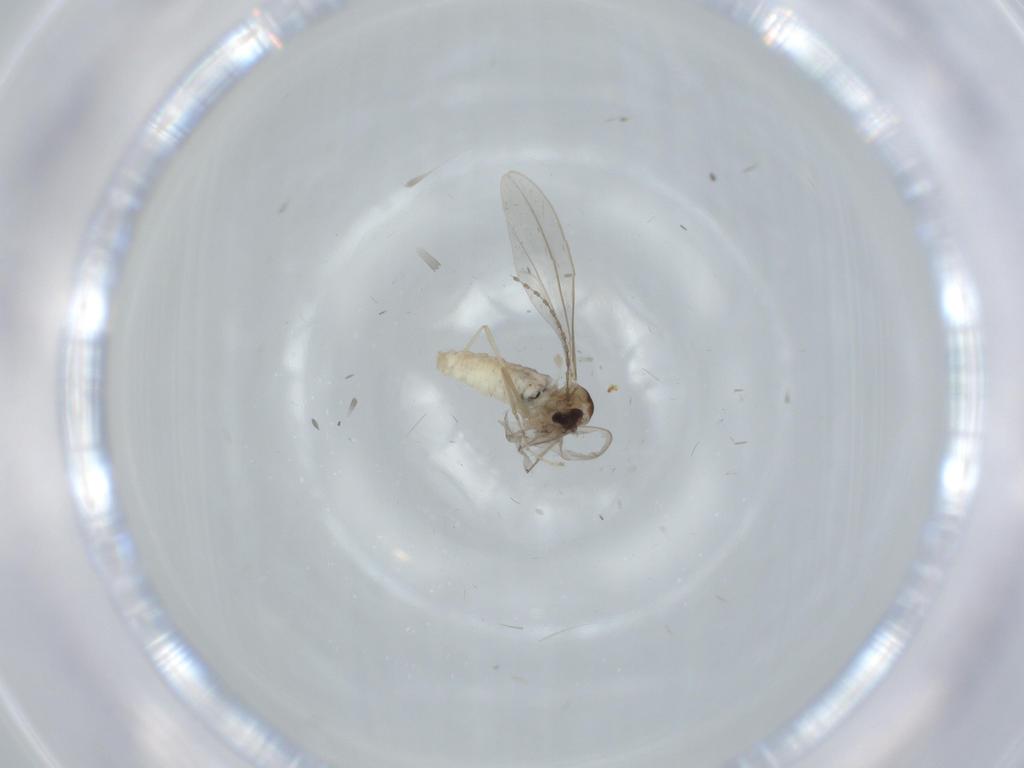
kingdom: Animalia
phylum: Arthropoda
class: Insecta
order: Diptera
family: Cecidomyiidae
